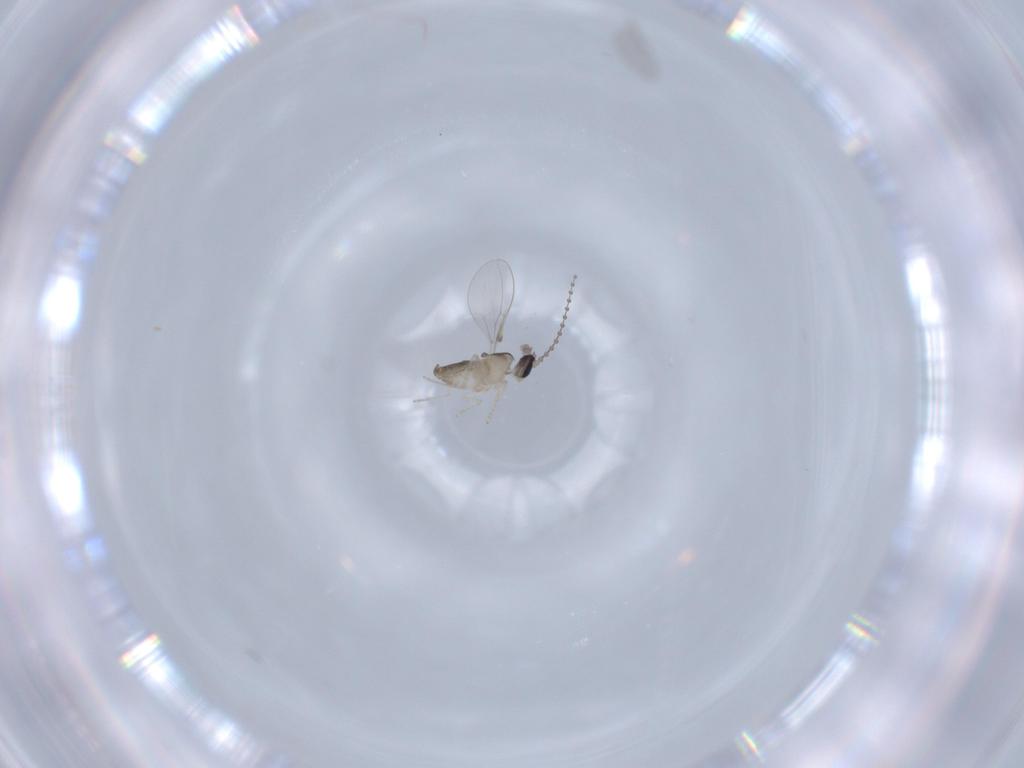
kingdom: Animalia
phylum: Arthropoda
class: Insecta
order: Diptera
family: Cecidomyiidae
